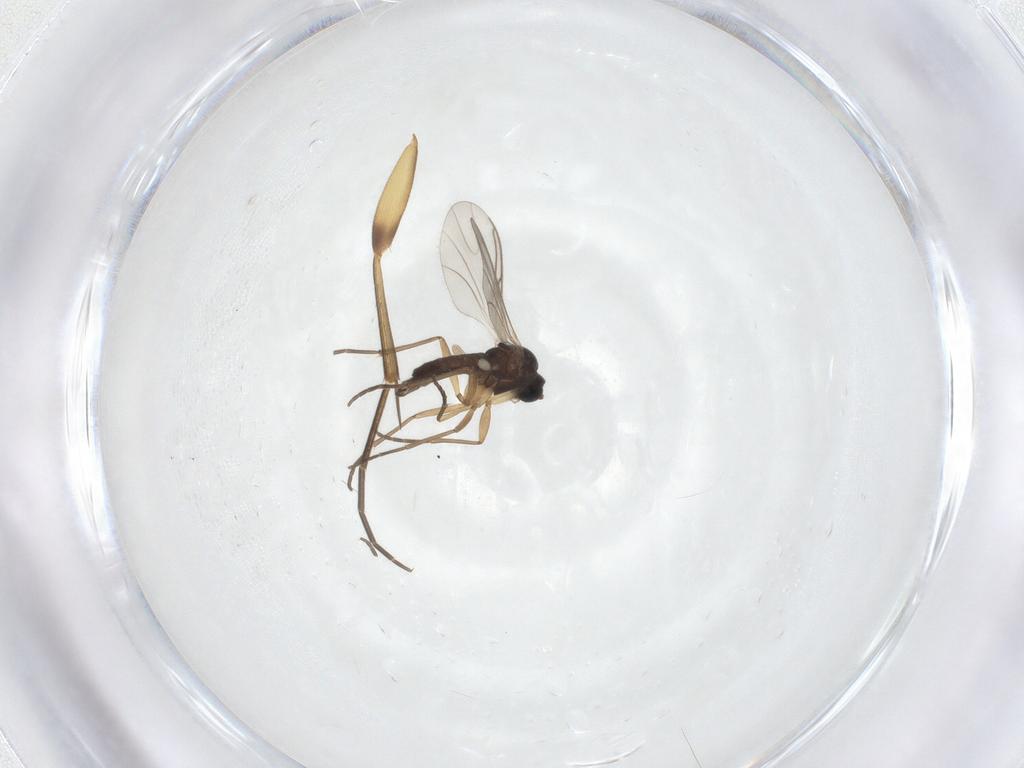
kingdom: Animalia
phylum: Arthropoda
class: Insecta
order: Diptera
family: Sciaridae
